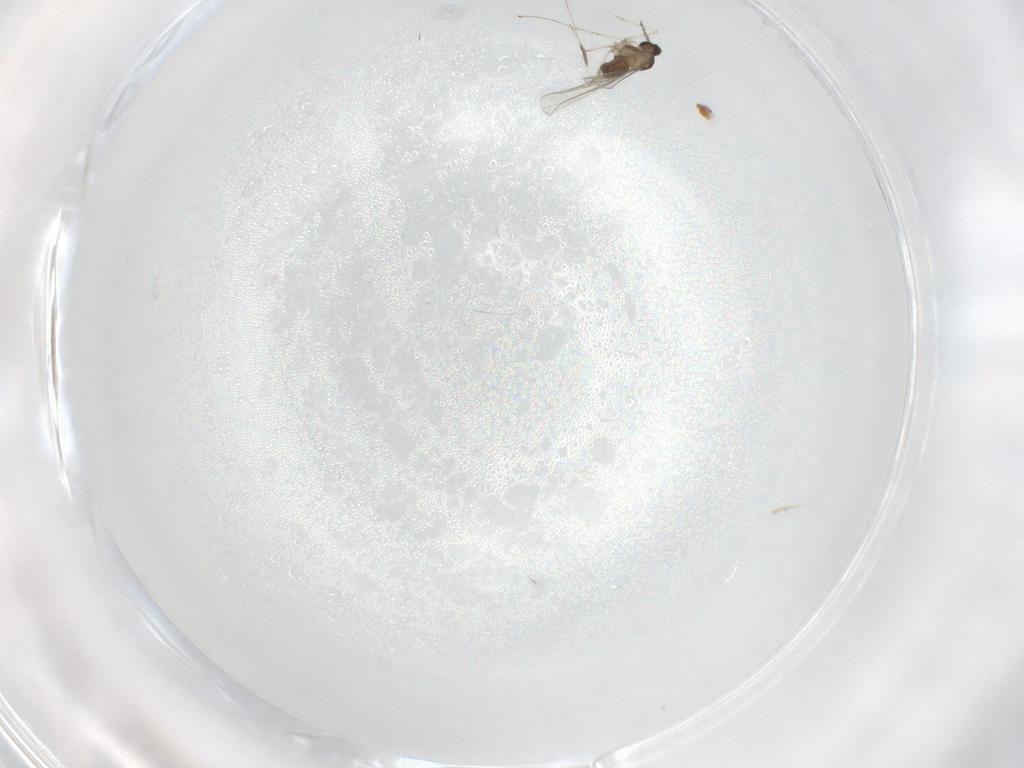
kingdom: Animalia
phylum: Arthropoda
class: Insecta
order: Diptera
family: Cecidomyiidae
